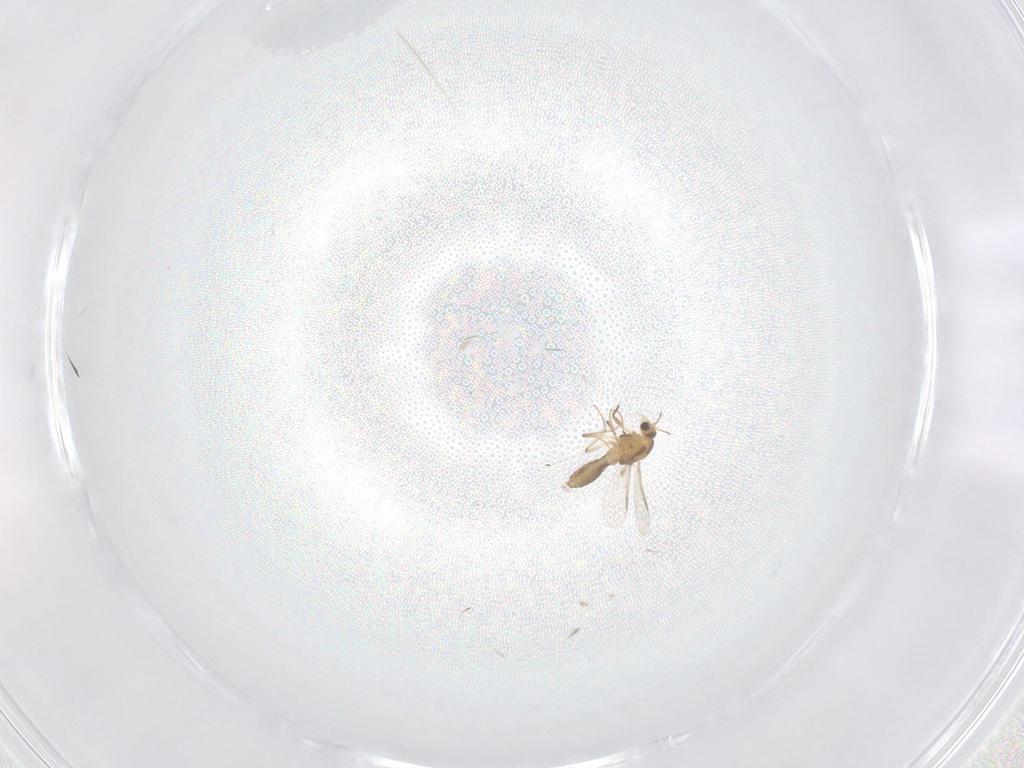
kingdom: Animalia
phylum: Arthropoda
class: Insecta
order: Diptera
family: Chironomidae
